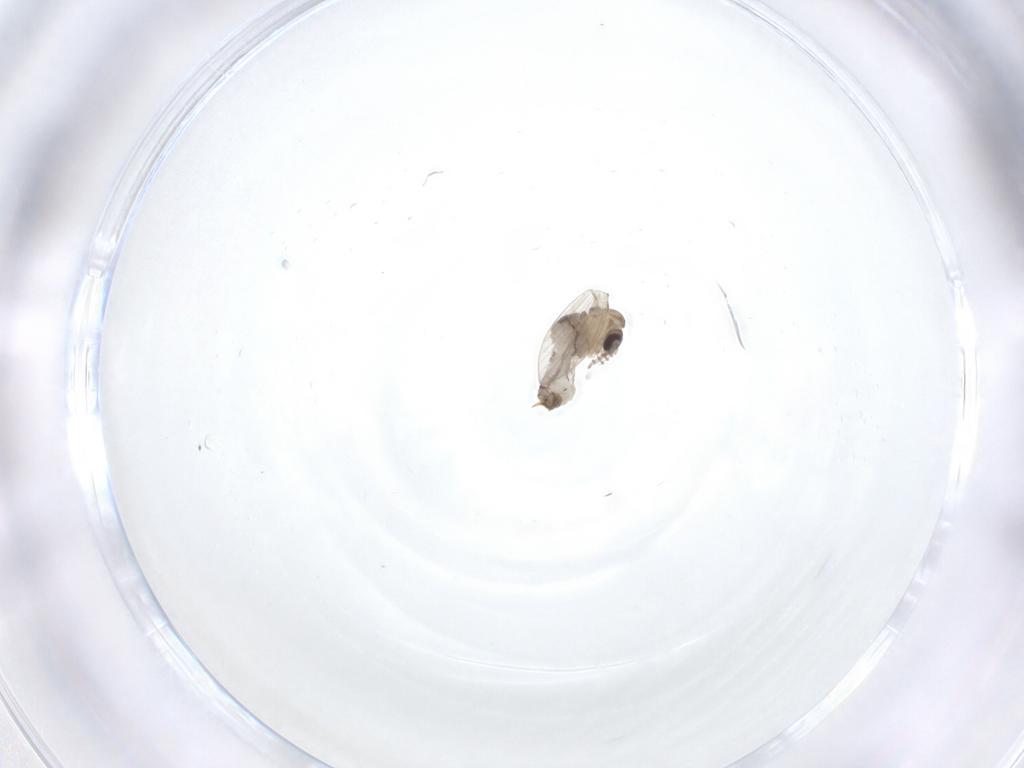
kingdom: Animalia
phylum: Arthropoda
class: Insecta
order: Diptera
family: Psychodidae
